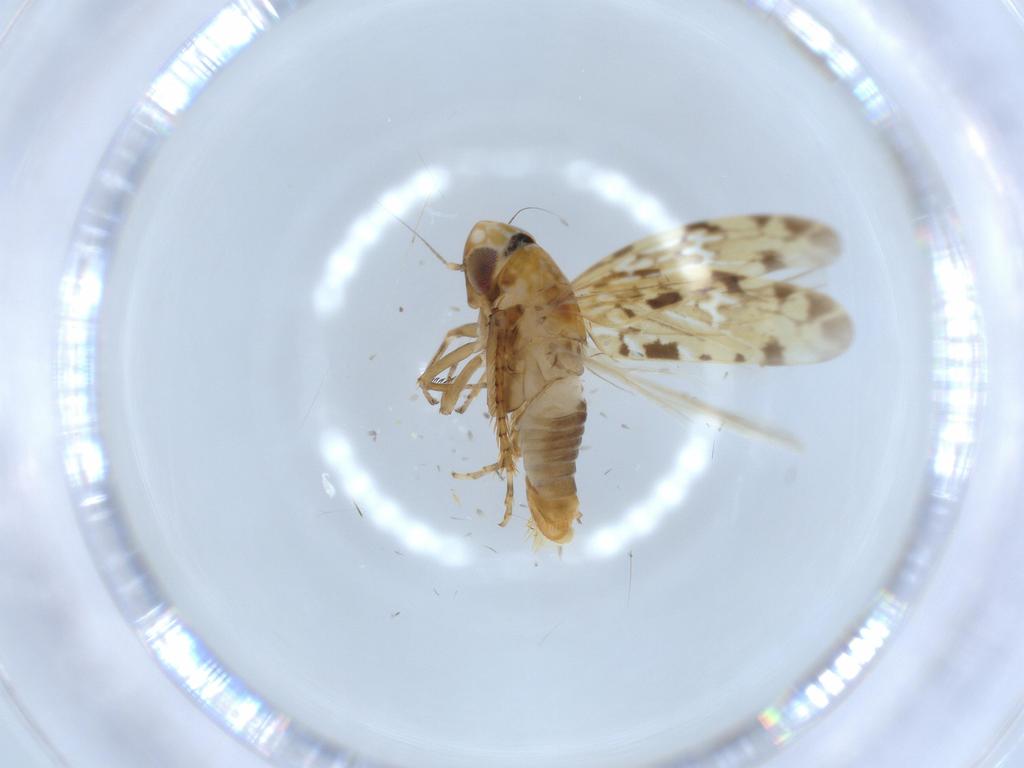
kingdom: Animalia
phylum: Arthropoda
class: Insecta
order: Hemiptera
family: Cicadellidae
